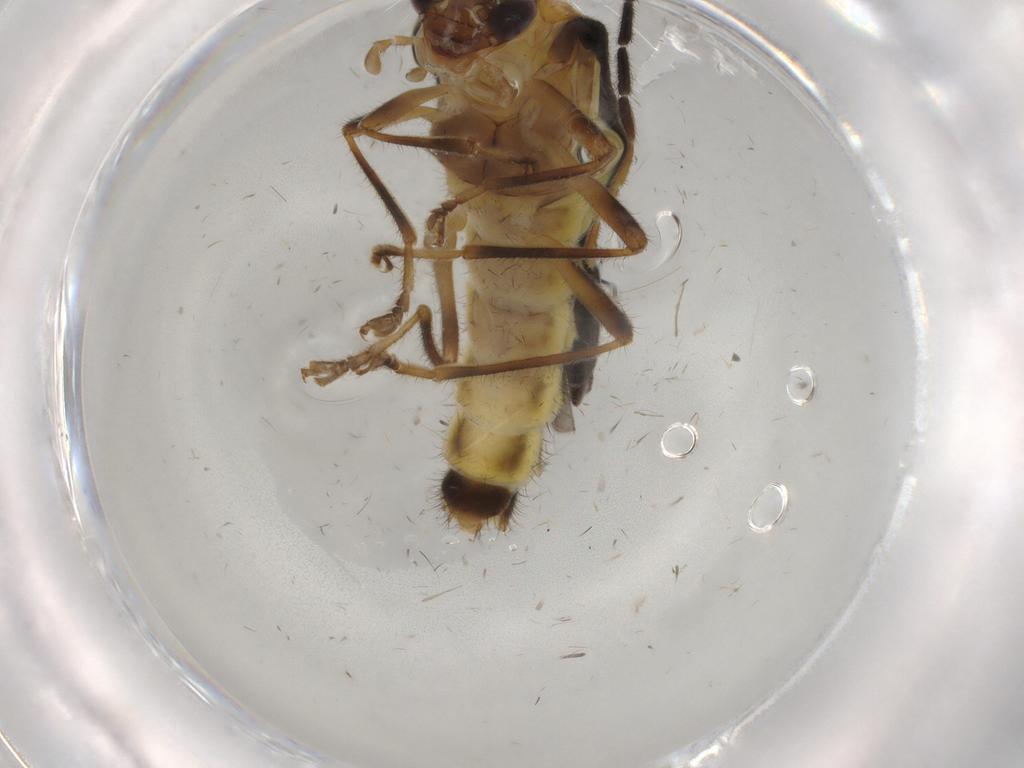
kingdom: Animalia
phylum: Arthropoda
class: Insecta
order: Coleoptera
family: Cantharidae
